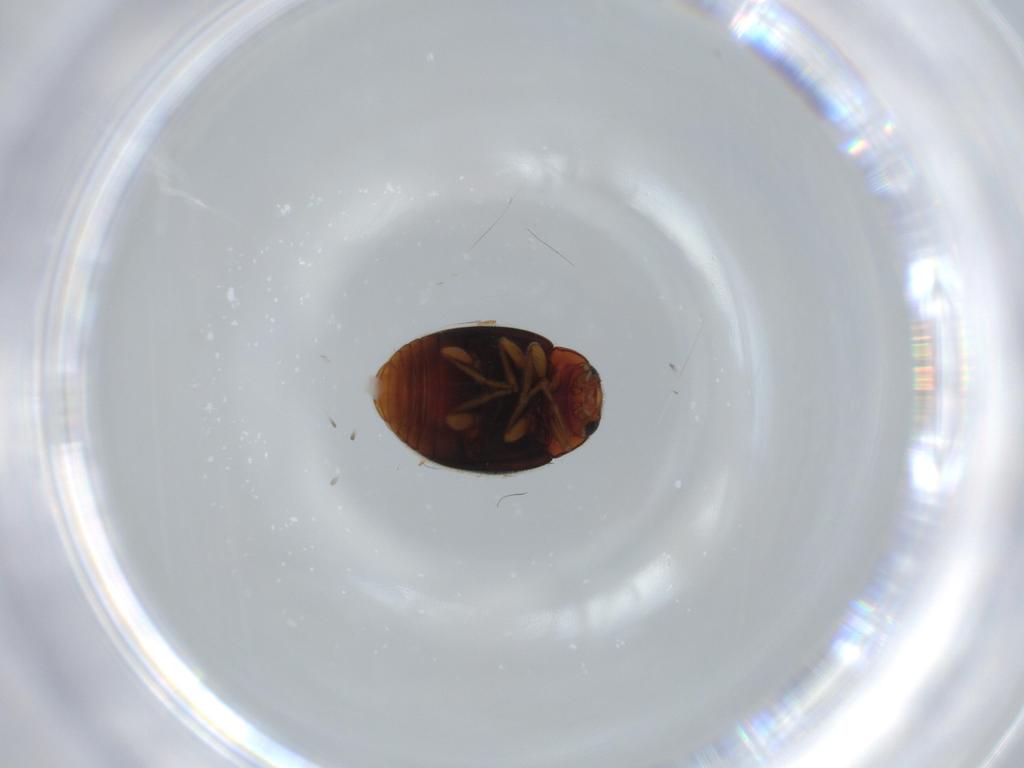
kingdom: Animalia
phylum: Arthropoda
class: Insecta
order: Coleoptera
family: Coccinellidae
